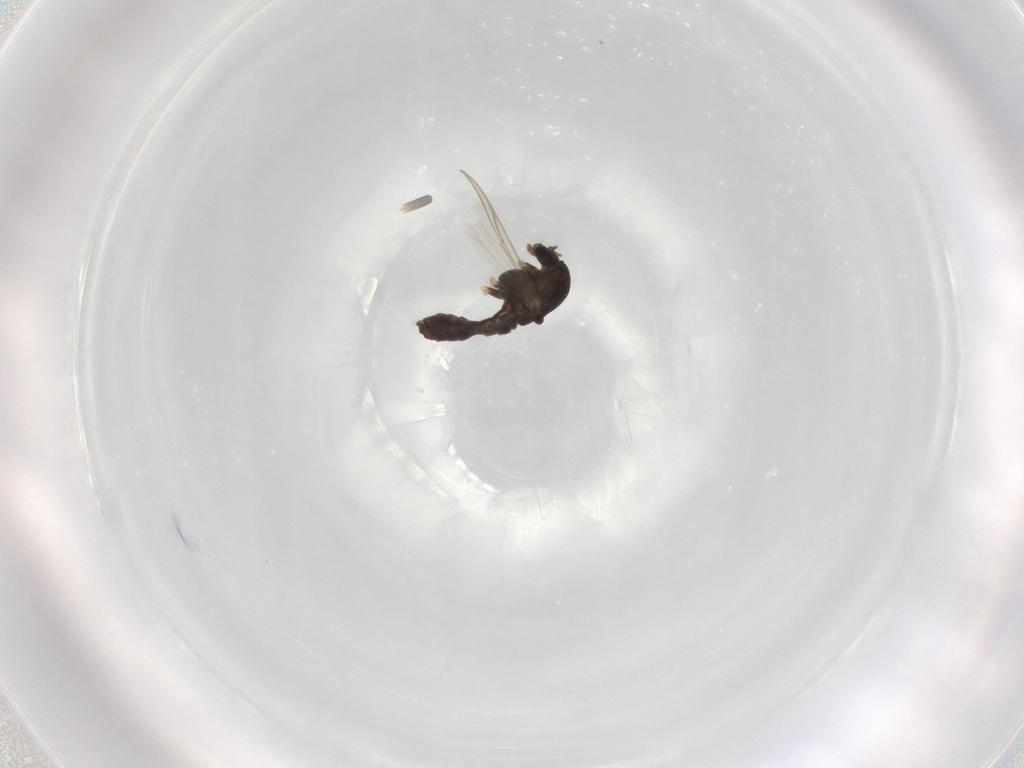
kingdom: Animalia
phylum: Arthropoda
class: Insecta
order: Diptera
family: Chironomidae
